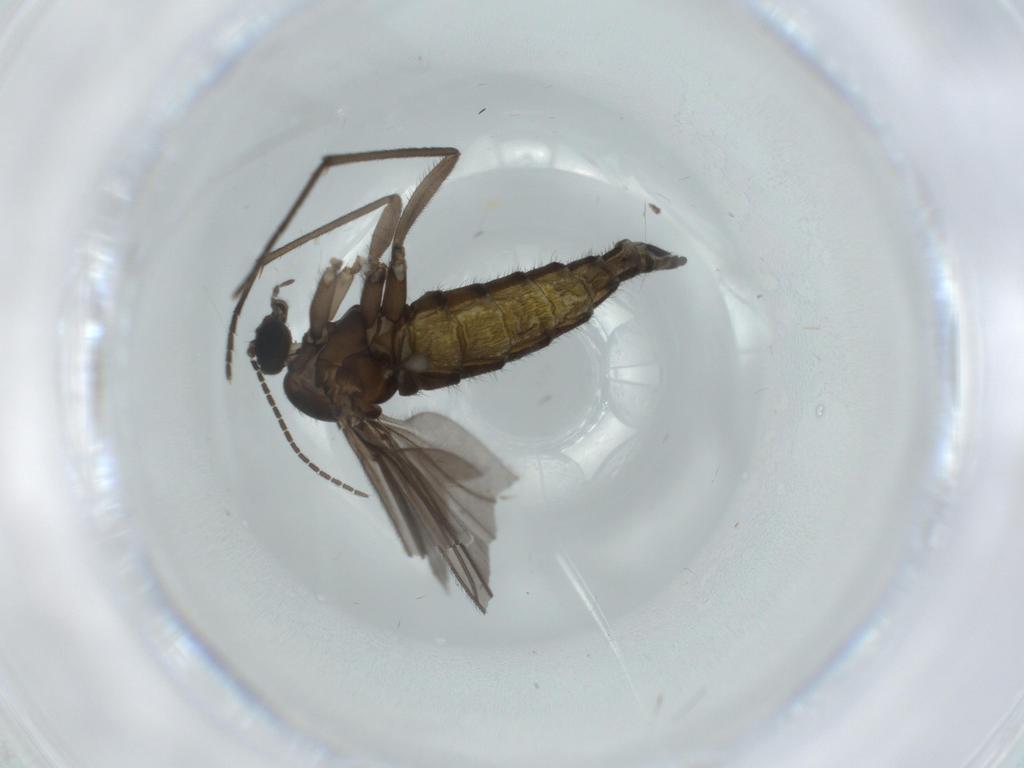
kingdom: Animalia
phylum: Arthropoda
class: Insecta
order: Diptera
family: Sciaridae
